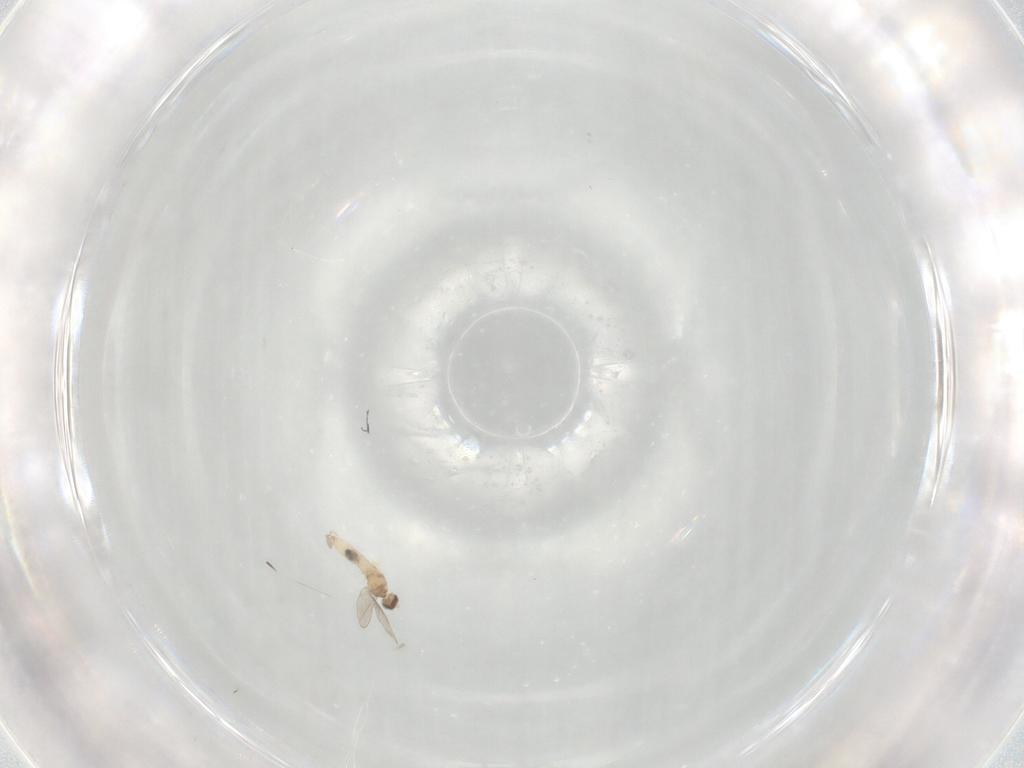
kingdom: Animalia
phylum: Arthropoda
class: Insecta
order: Diptera
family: Cecidomyiidae
